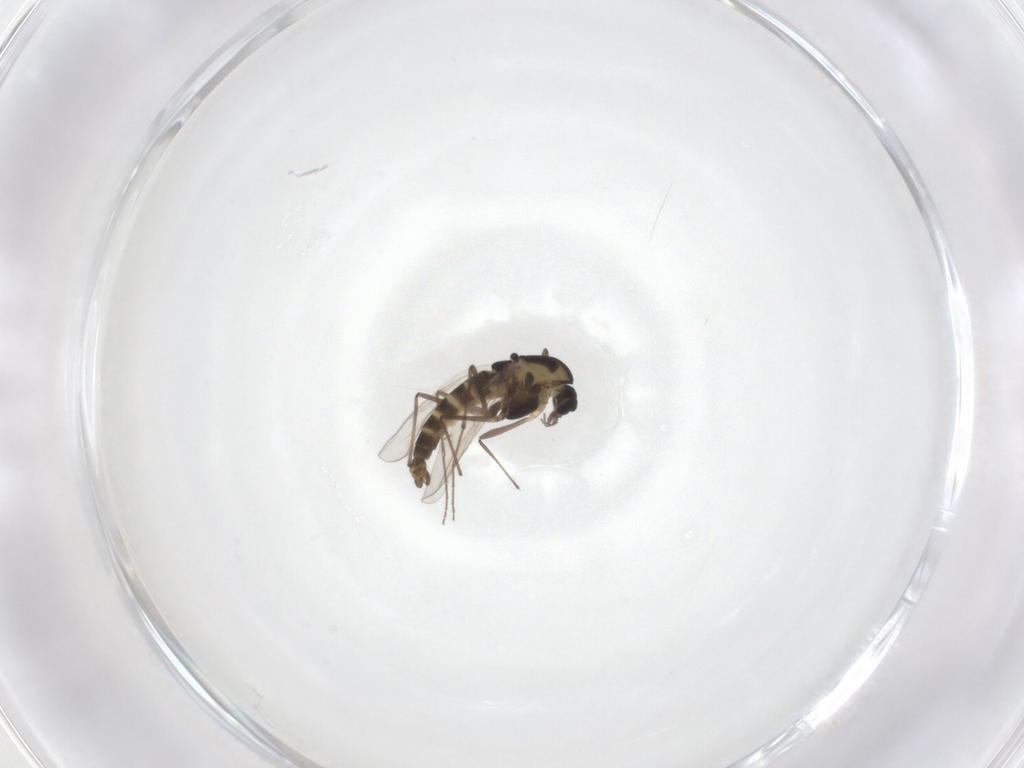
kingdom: Animalia
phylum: Arthropoda
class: Insecta
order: Diptera
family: Chironomidae
